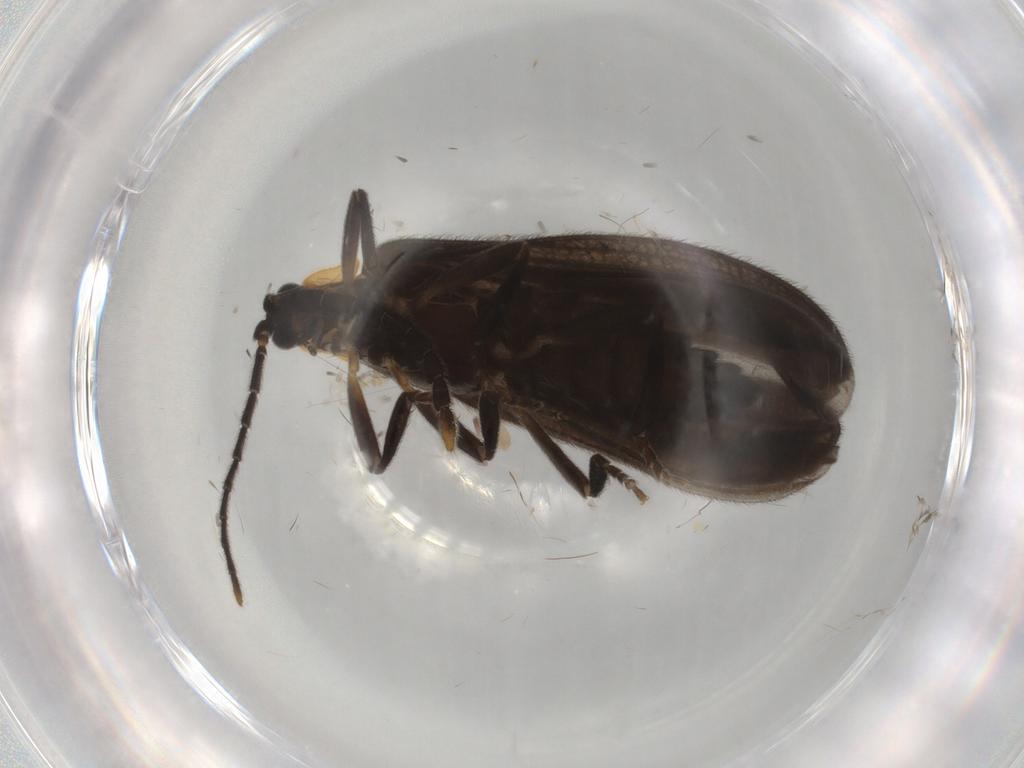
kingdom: Animalia
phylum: Arthropoda
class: Insecta
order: Coleoptera
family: Lycidae
